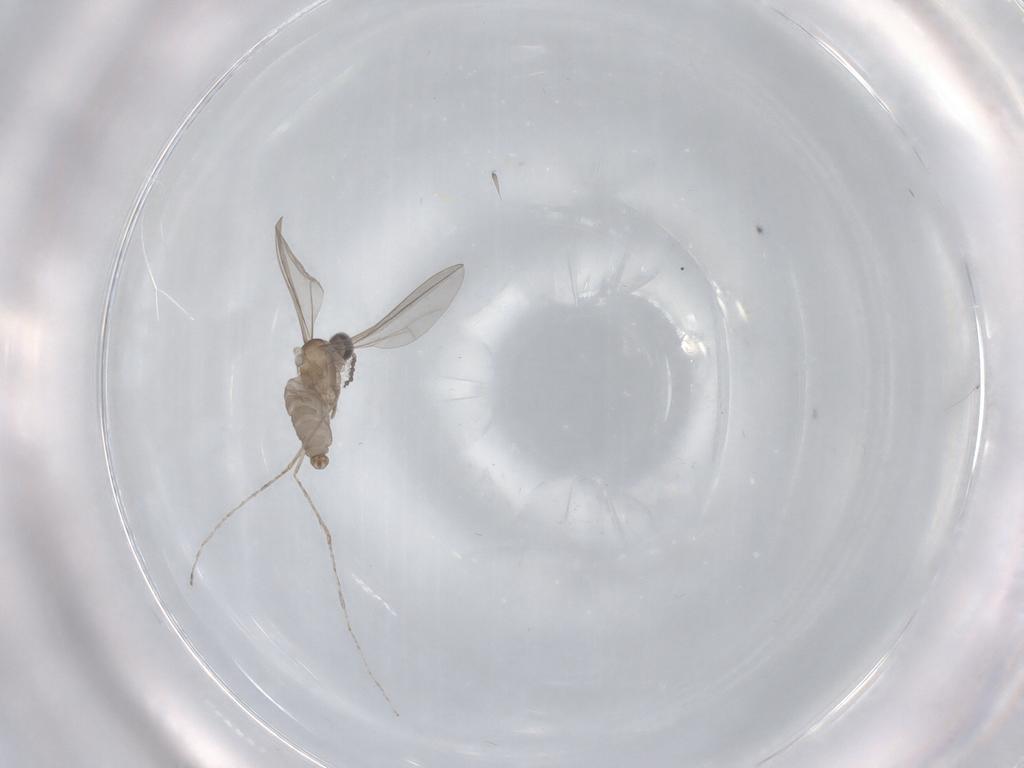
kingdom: Animalia
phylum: Arthropoda
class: Insecta
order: Diptera
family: Cecidomyiidae
